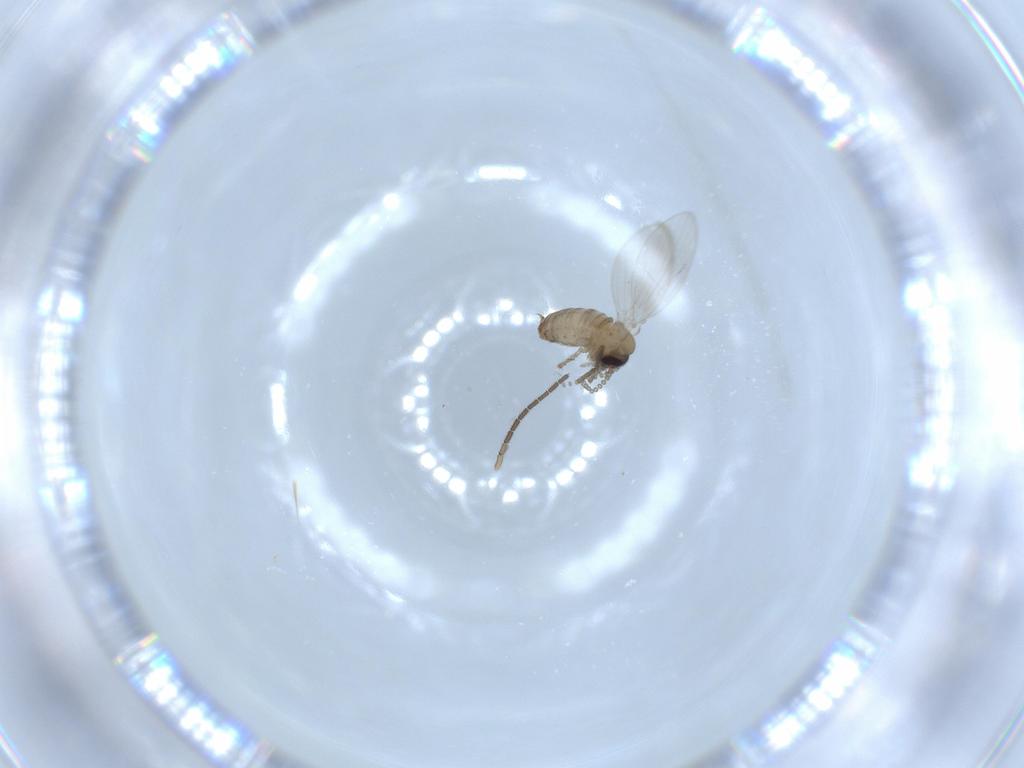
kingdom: Animalia
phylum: Arthropoda
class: Insecta
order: Diptera
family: Sciaridae
